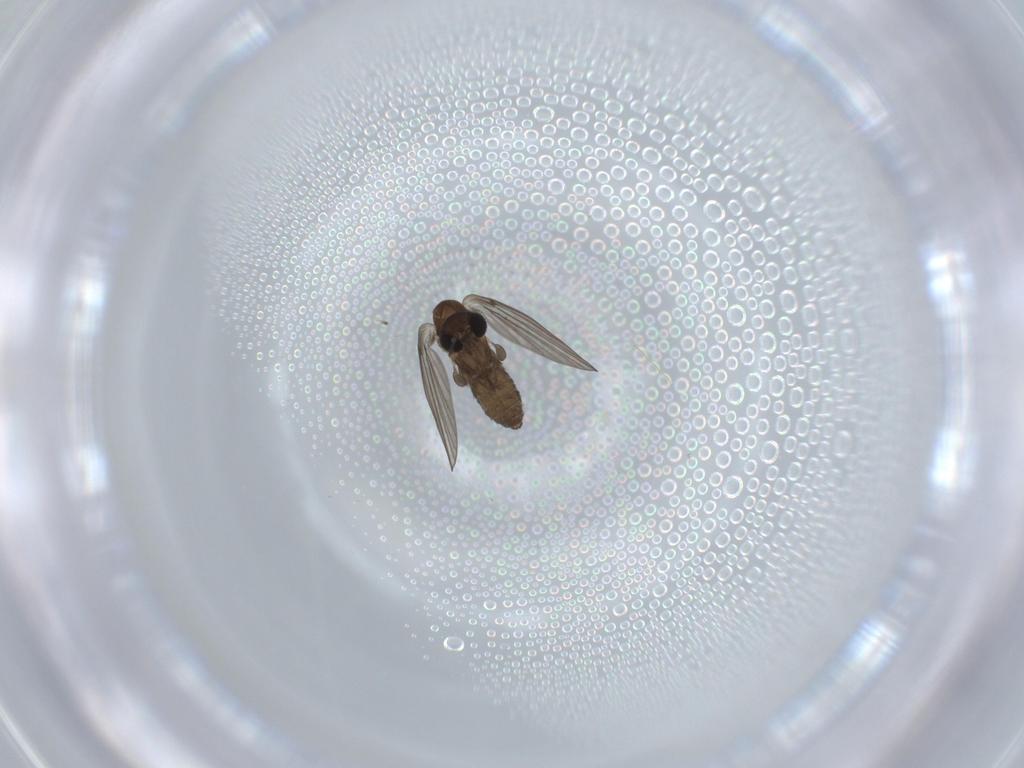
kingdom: Animalia
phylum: Arthropoda
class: Insecta
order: Diptera
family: Psychodidae
